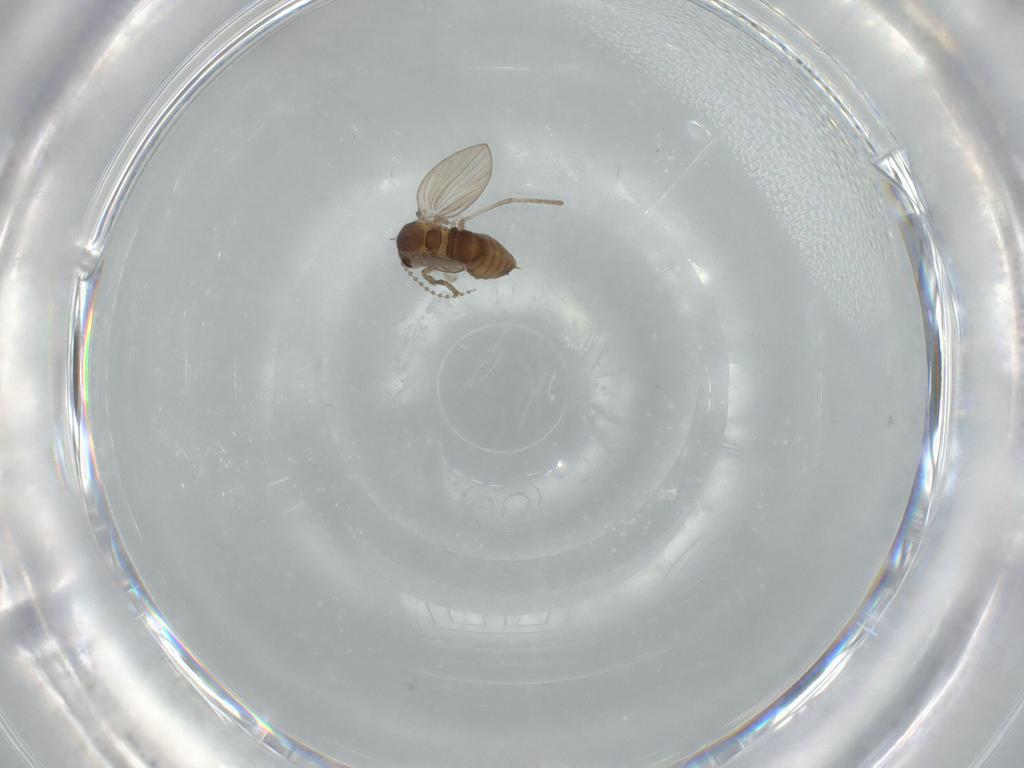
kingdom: Animalia
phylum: Arthropoda
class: Insecta
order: Diptera
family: Psychodidae
